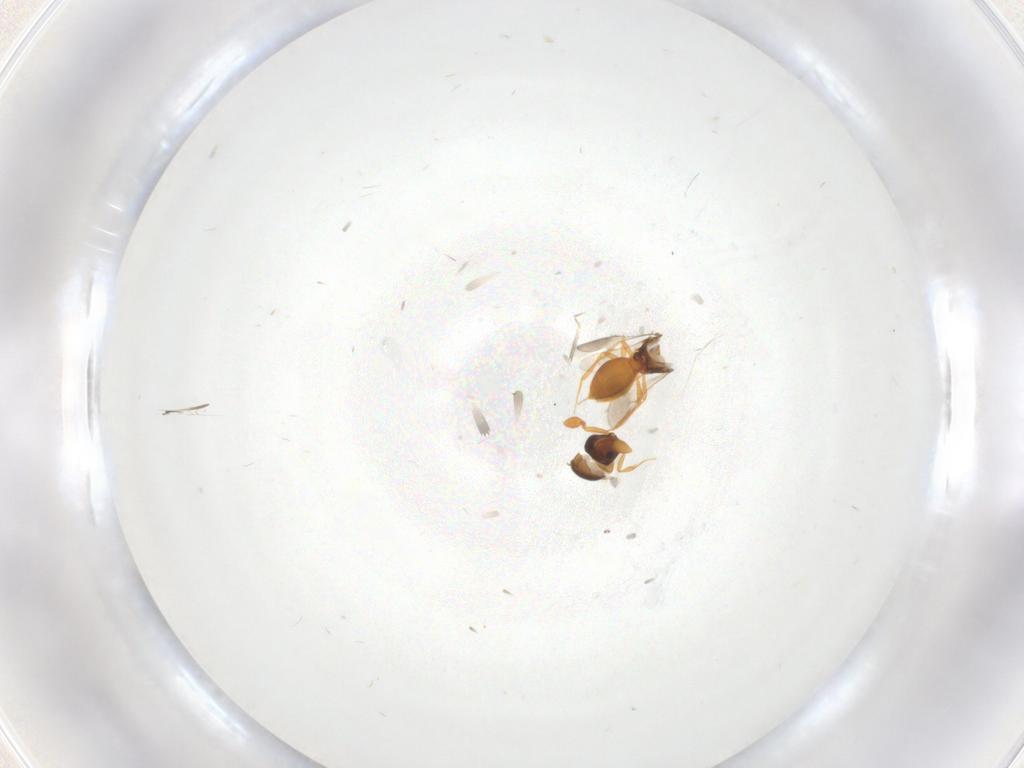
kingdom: Animalia
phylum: Arthropoda
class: Insecta
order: Hymenoptera
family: Scelionidae
